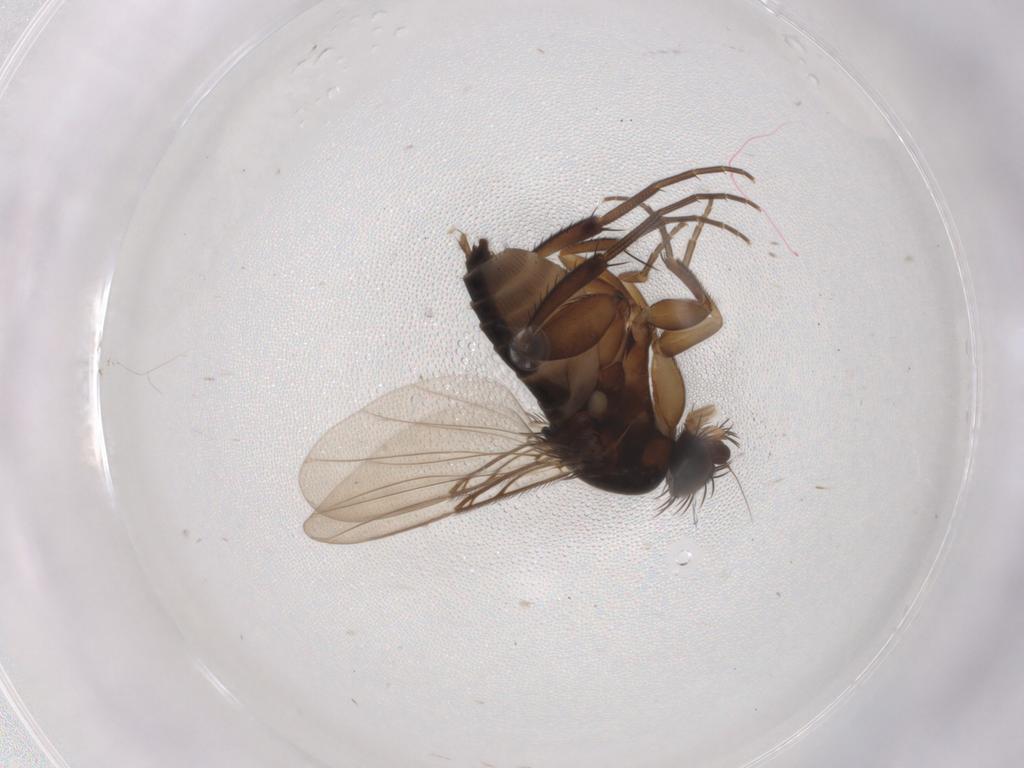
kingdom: Animalia
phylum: Arthropoda
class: Insecta
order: Diptera
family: Phoridae
